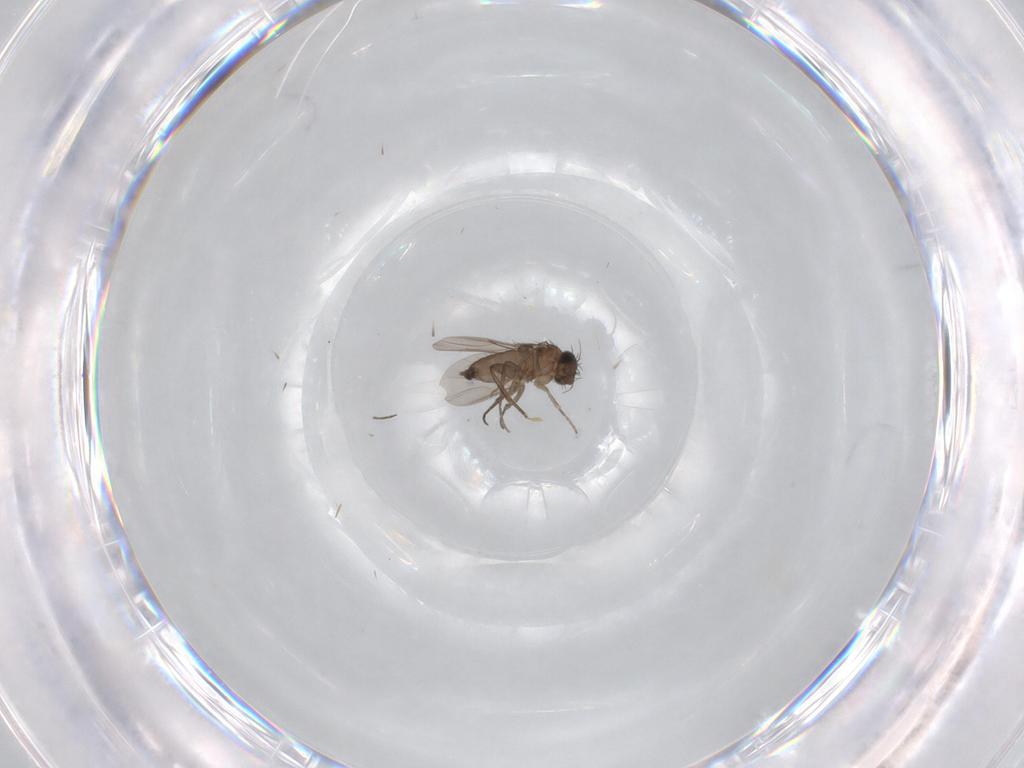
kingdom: Animalia
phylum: Arthropoda
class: Insecta
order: Diptera
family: Phoridae
